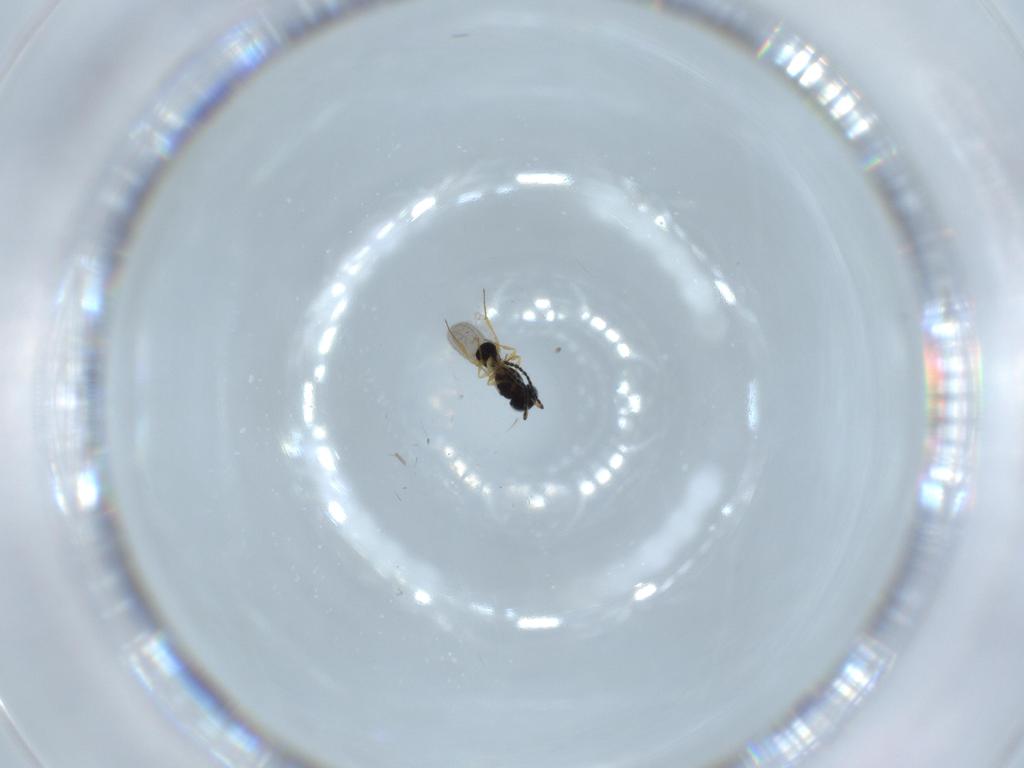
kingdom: Animalia
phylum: Arthropoda
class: Insecta
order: Hymenoptera
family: Scelionidae
